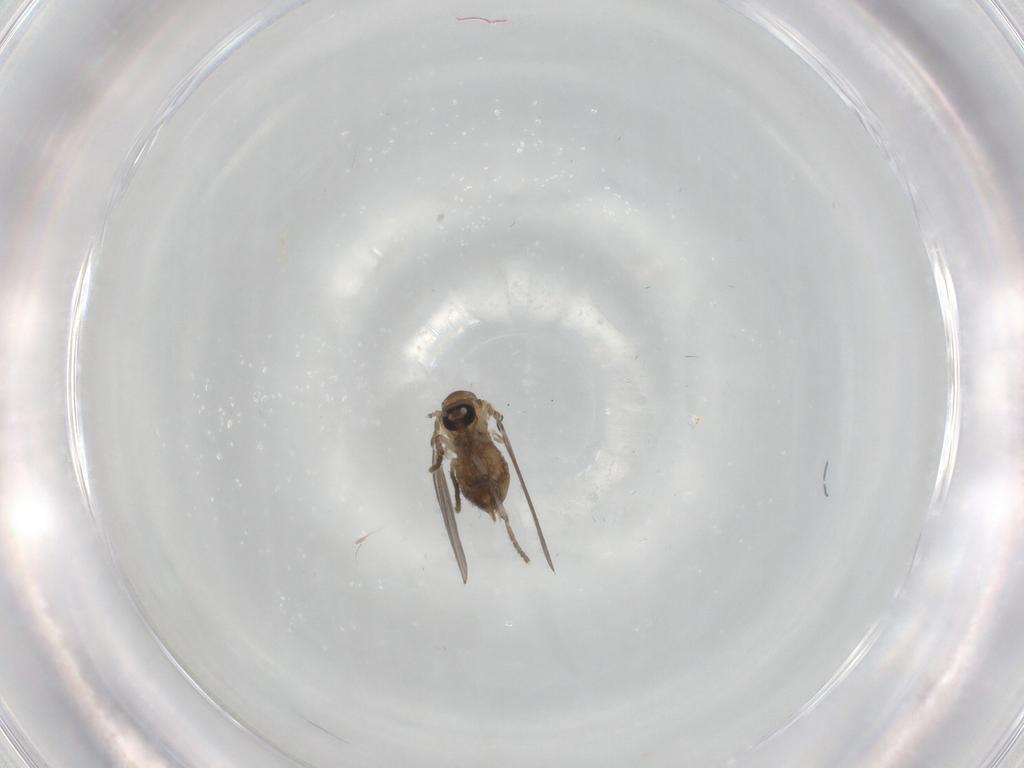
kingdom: Animalia
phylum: Arthropoda
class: Insecta
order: Diptera
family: Psychodidae
